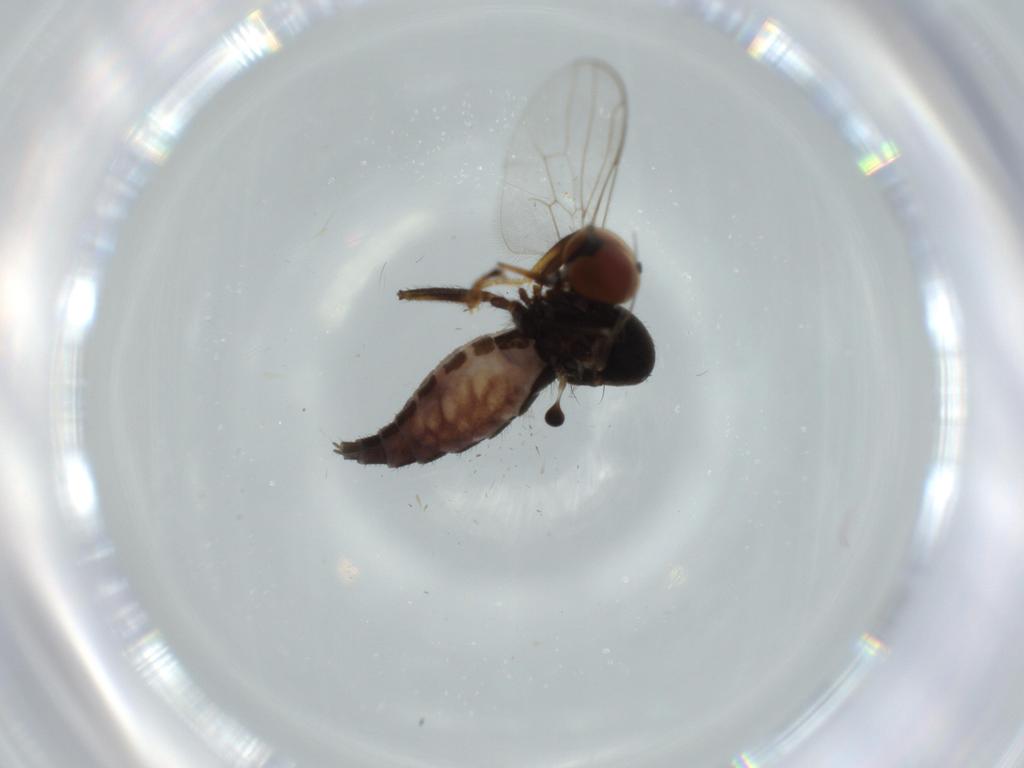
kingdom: Animalia
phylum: Arthropoda
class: Insecta
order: Diptera
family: Hybotidae
